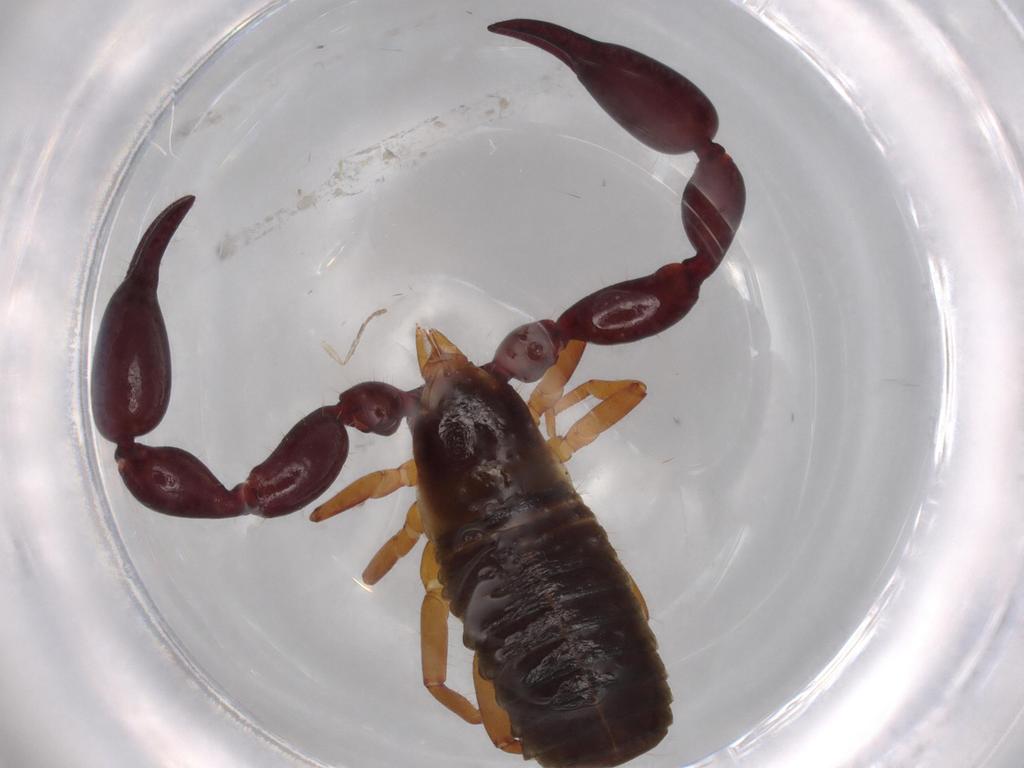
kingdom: Animalia
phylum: Arthropoda
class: Arachnida
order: Pseudoscorpiones
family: Chernetidae
